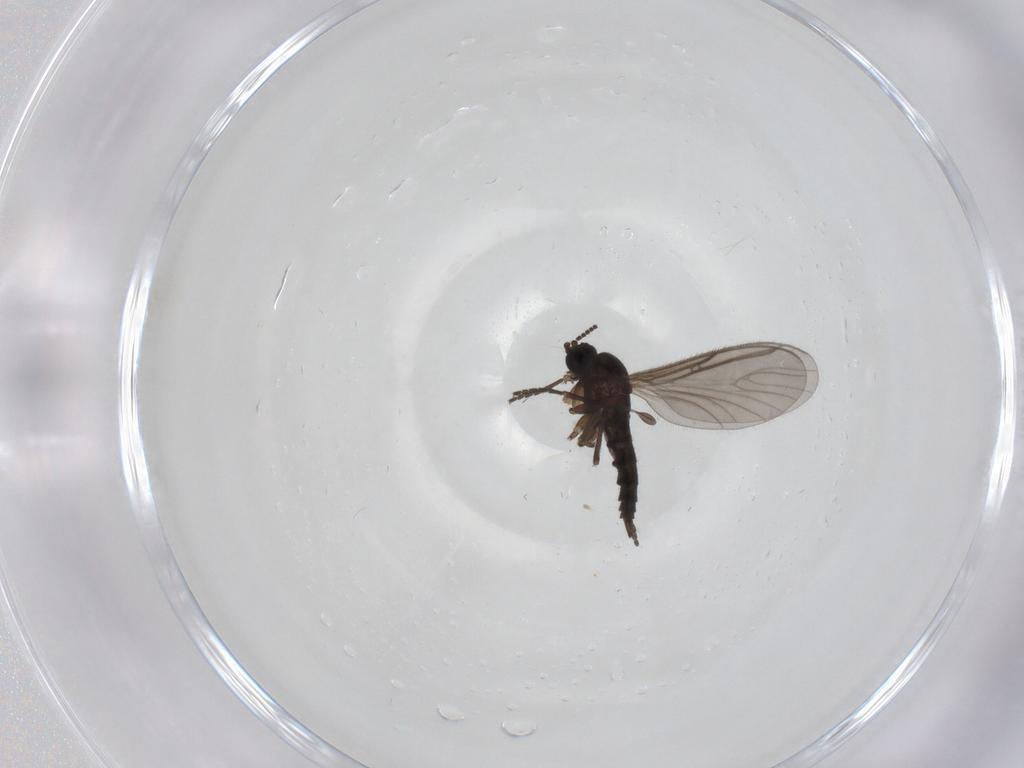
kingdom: Animalia
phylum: Arthropoda
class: Insecta
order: Diptera
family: Tipulidae
